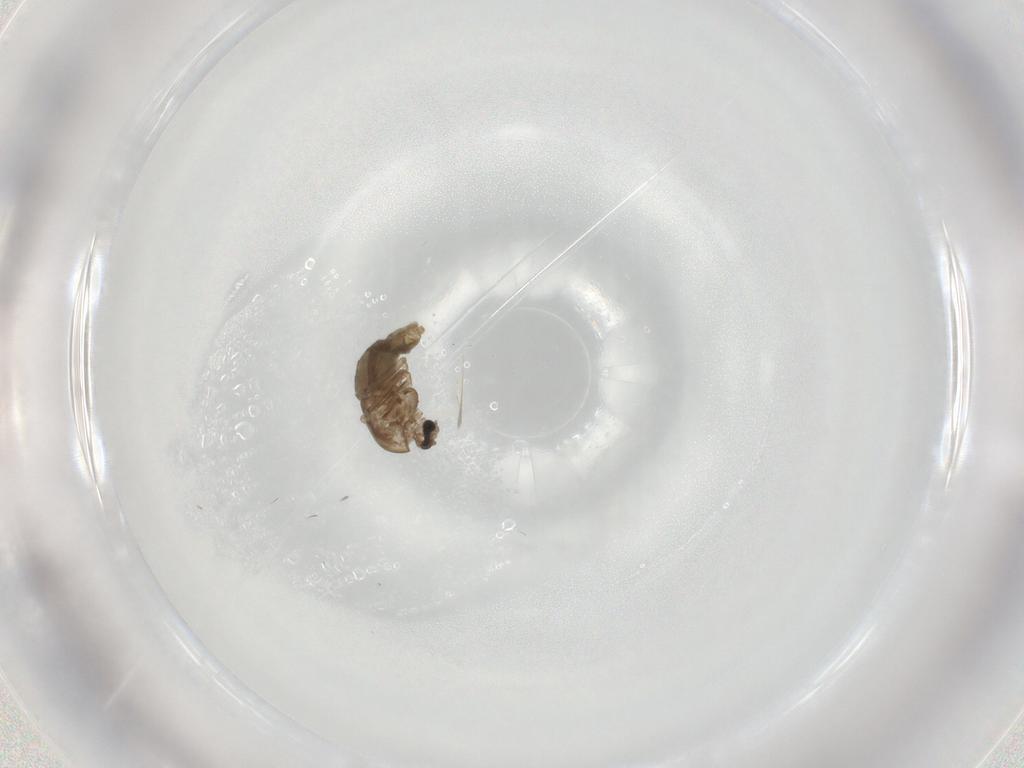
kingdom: Animalia
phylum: Arthropoda
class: Insecta
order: Diptera
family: Chironomidae
